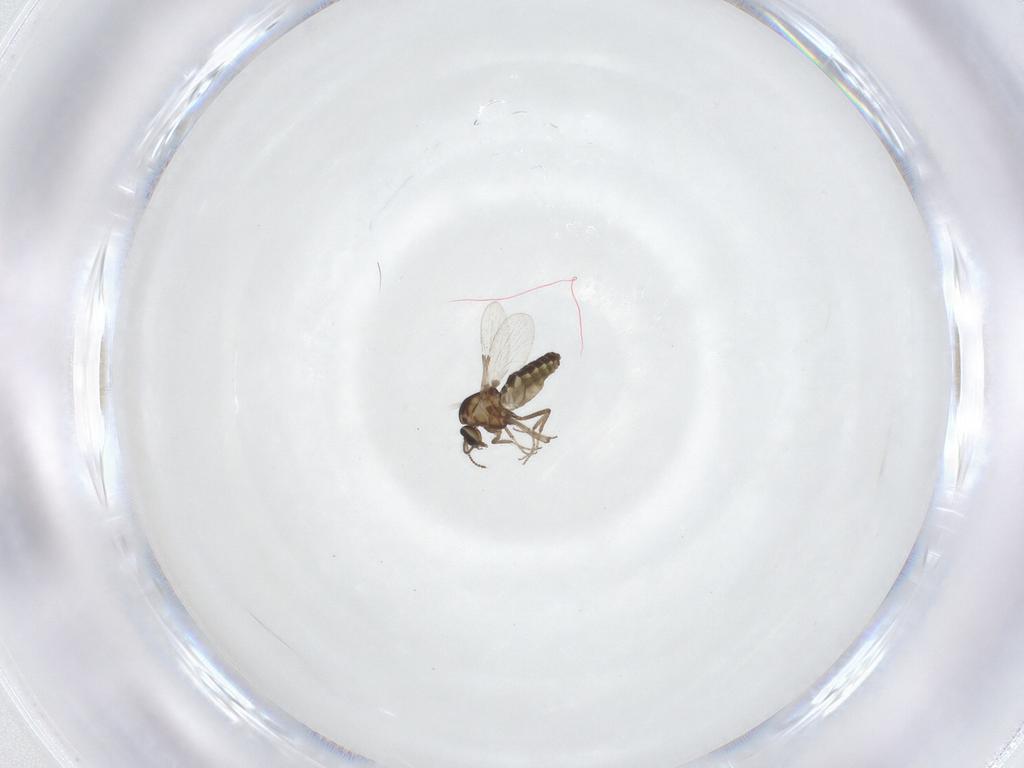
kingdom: Animalia
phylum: Arthropoda
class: Insecta
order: Diptera
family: Ceratopogonidae
